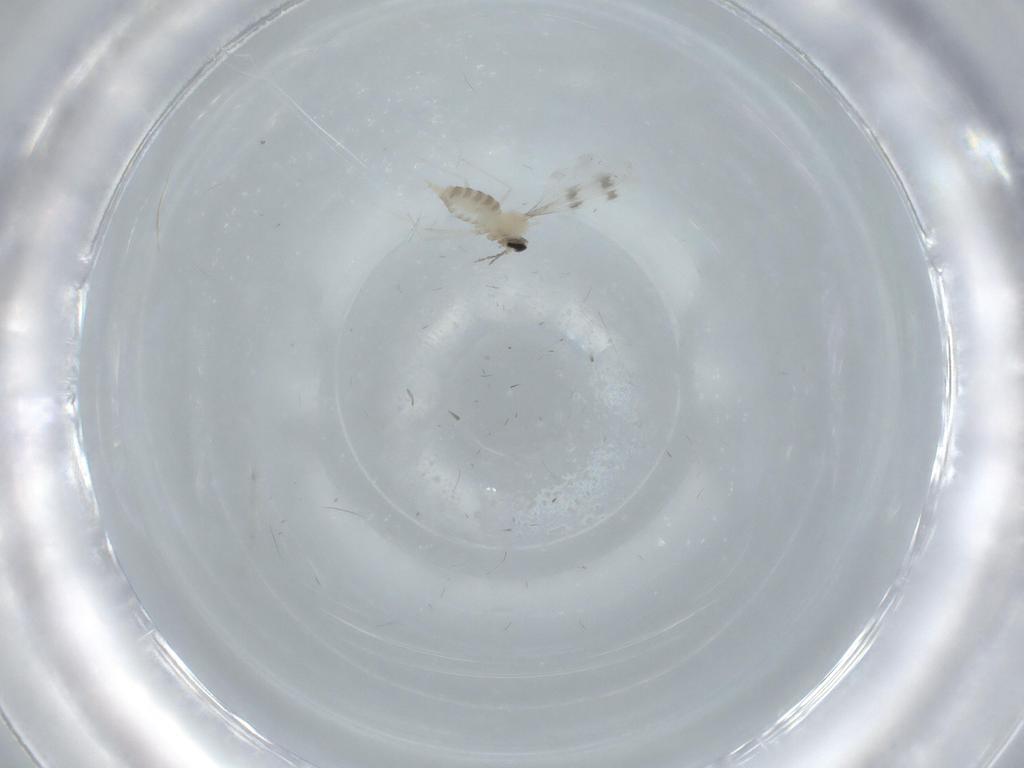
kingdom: Animalia
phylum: Arthropoda
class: Insecta
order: Diptera
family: Cecidomyiidae
